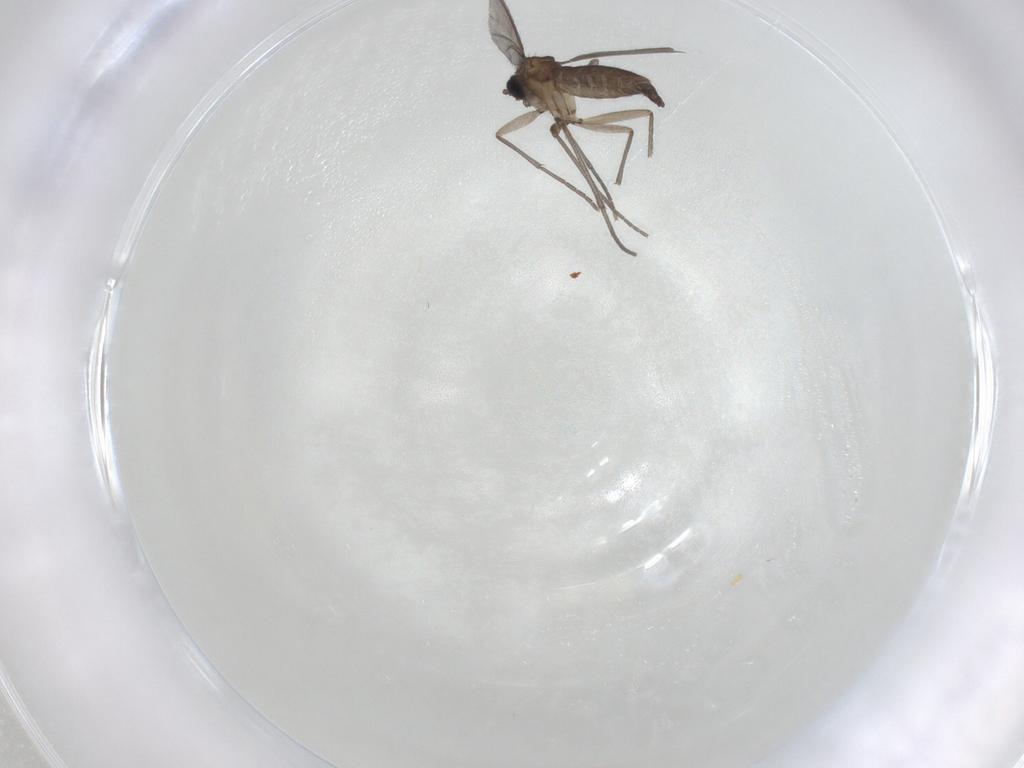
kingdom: Animalia
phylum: Arthropoda
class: Insecta
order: Diptera
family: Sciaridae
